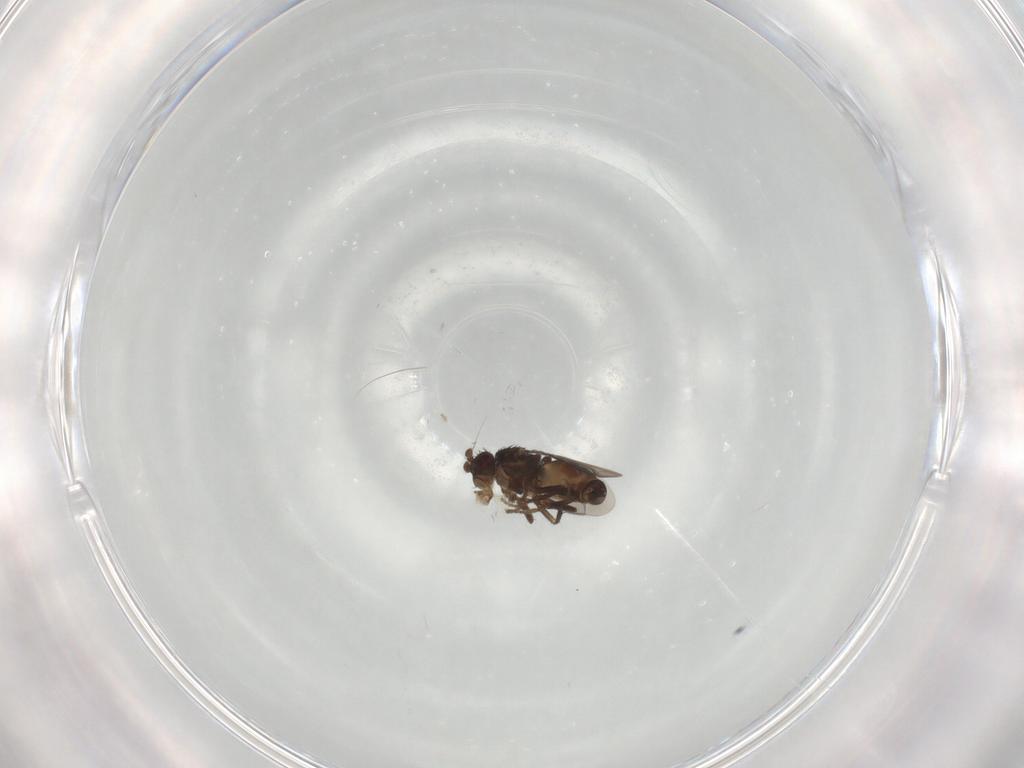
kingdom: Animalia
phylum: Arthropoda
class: Insecta
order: Diptera
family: Sphaeroceridae
